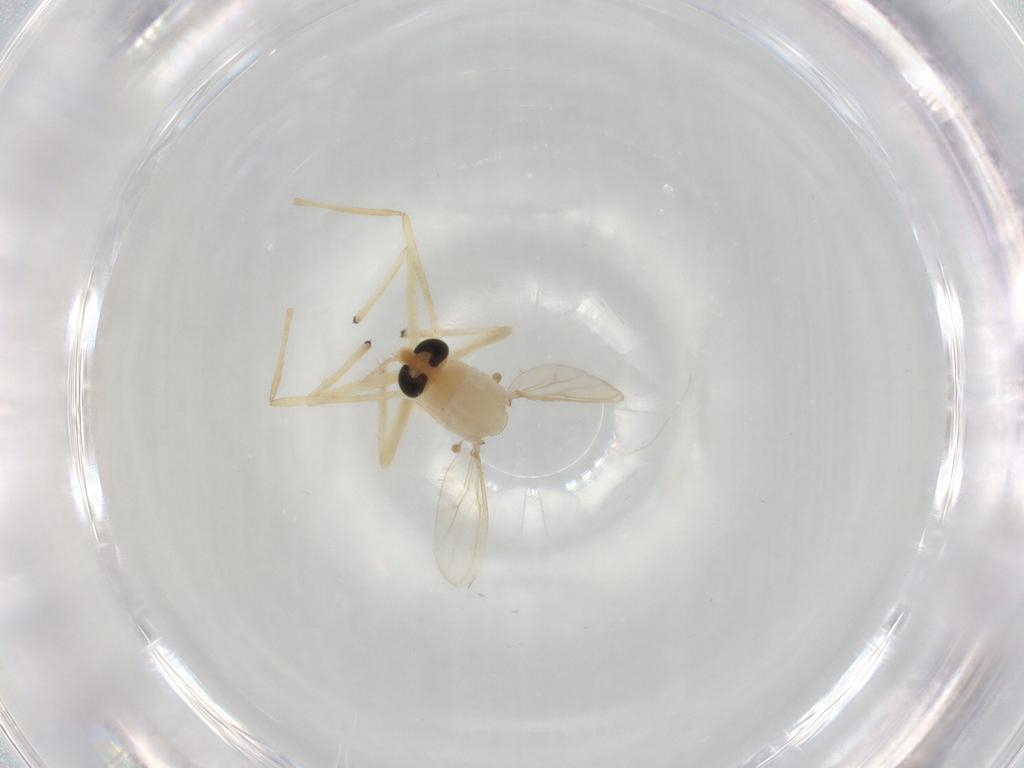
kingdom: Animalia
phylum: Arthropoda
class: Insecta
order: Diptera
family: Chironomidae
